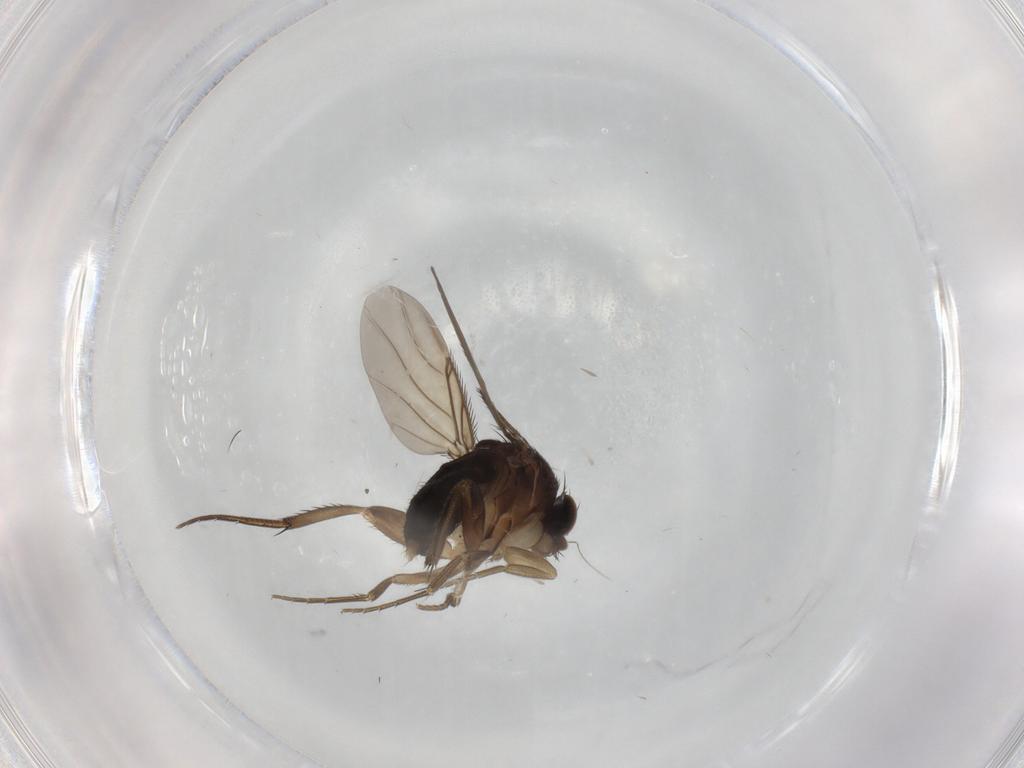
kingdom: Animalia
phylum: Arthropoda
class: Insecta
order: Diptera
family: Phoridae
